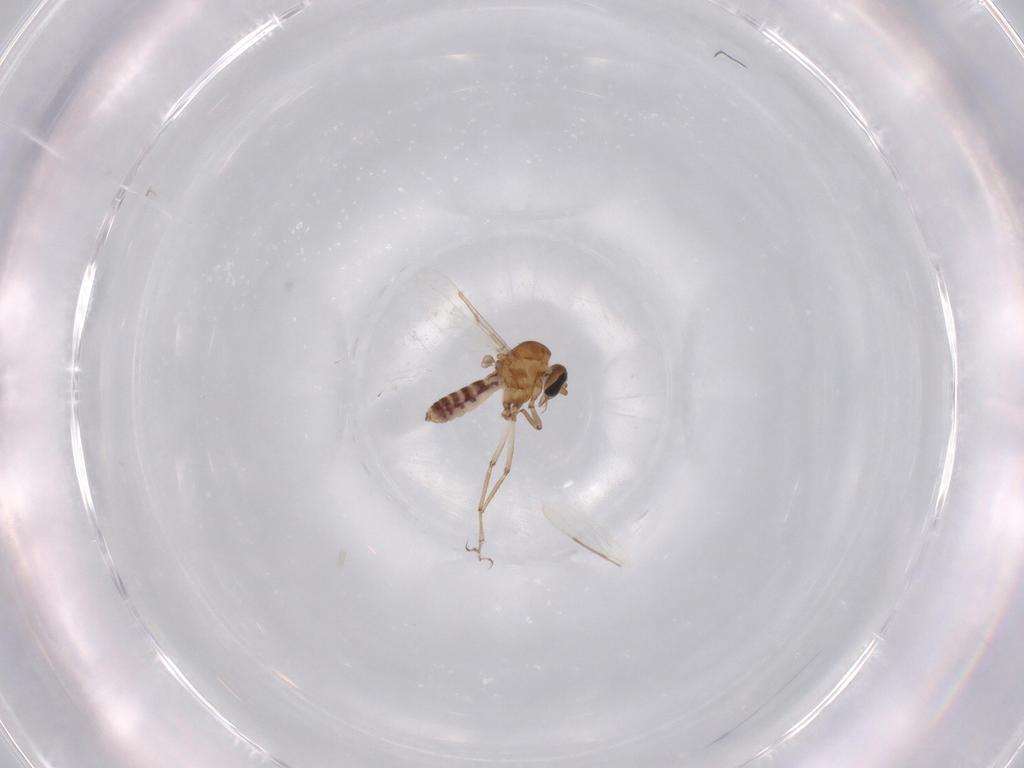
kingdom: Animalia
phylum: Arthropoda
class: Insecta
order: Diptera
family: Ceratopogonidae
